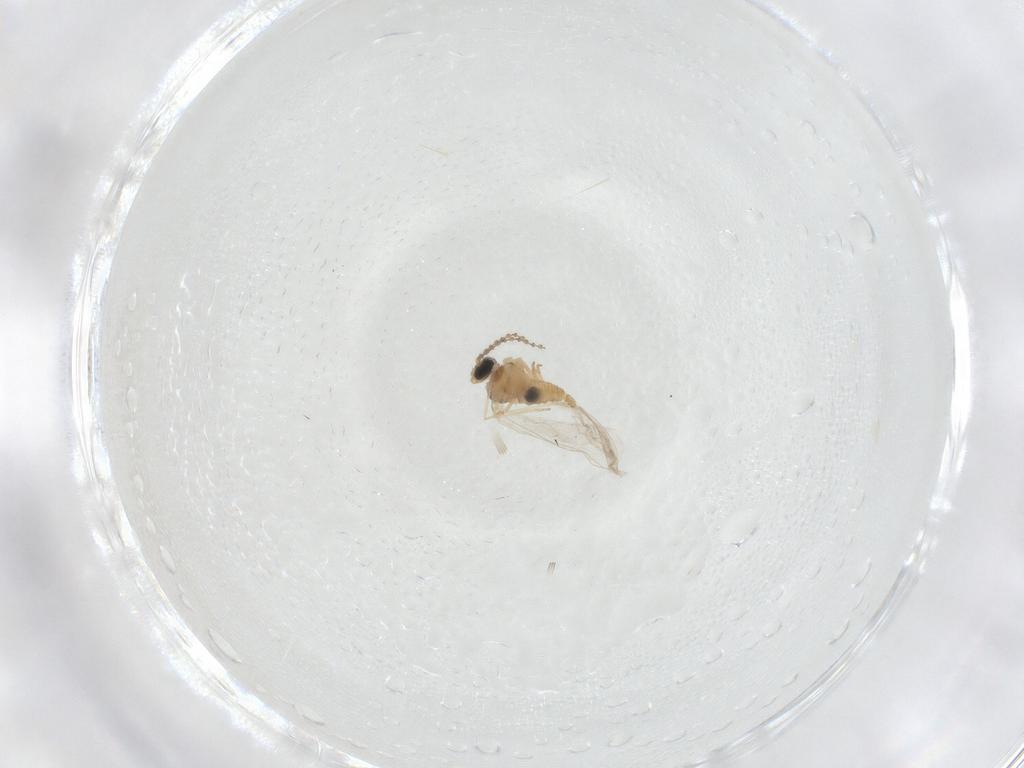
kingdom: Animalia
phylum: Arthropoda
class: Insecta
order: Diptera
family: Cecidomyiidae
